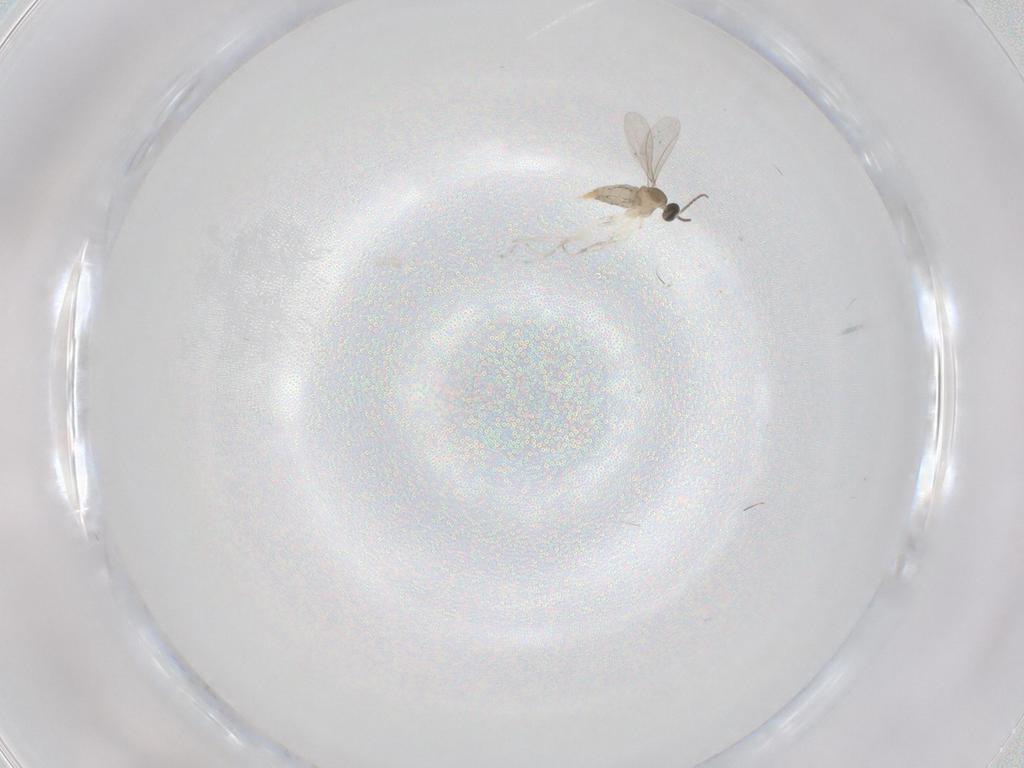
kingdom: Animalia
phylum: Arthropoda
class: Insecta
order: Diptera
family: Cecidomyiidae
